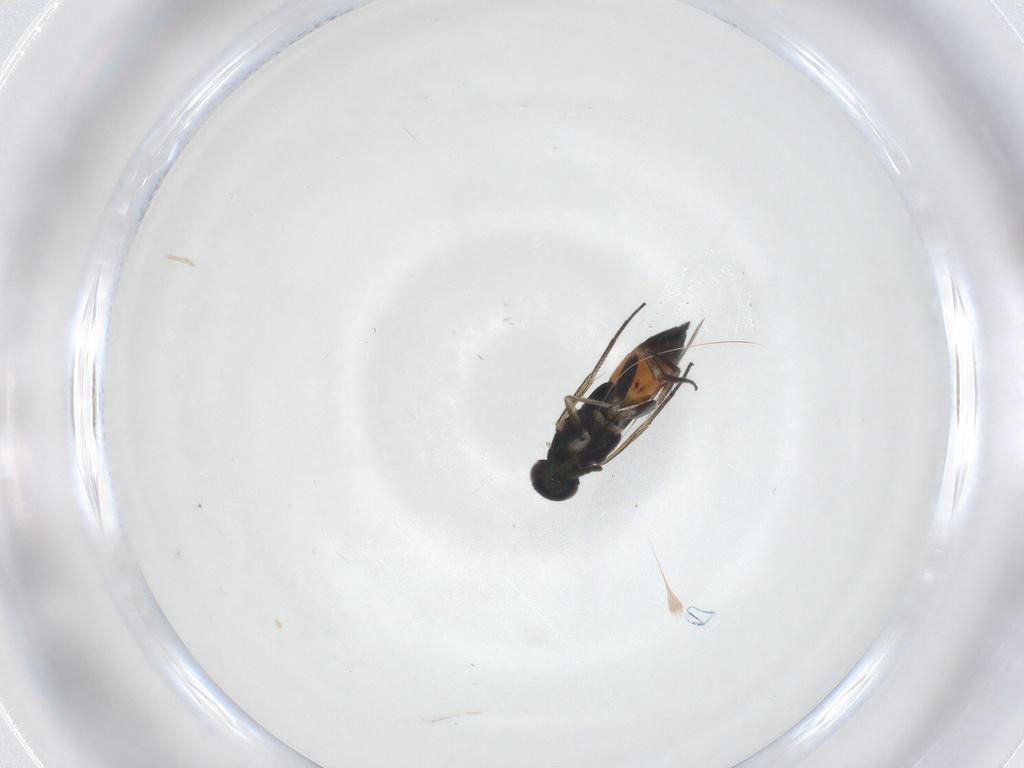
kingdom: Animalia
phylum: Arthropoda
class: Insecta
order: Hymenoptera
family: Eulophidae
